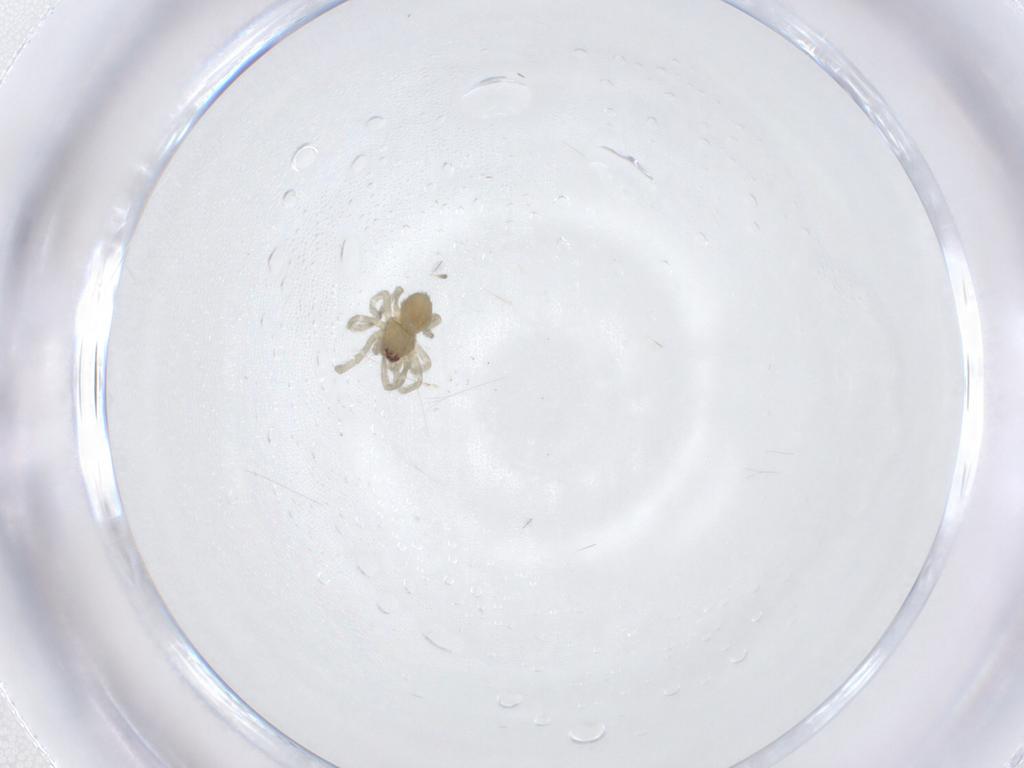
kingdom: Animalia
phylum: Arthropoda
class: Arachnida
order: Araneae
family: Dictynidae
